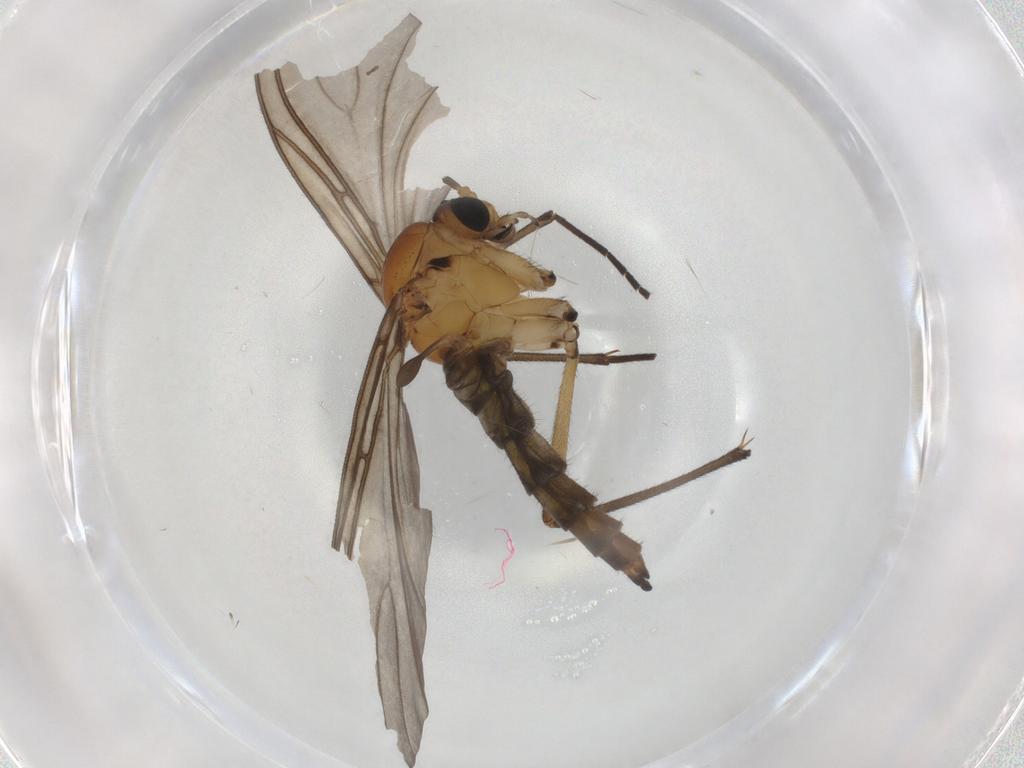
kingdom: Animalia
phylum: Arthropoda
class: Insecta
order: Diptera
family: Sciaridae
